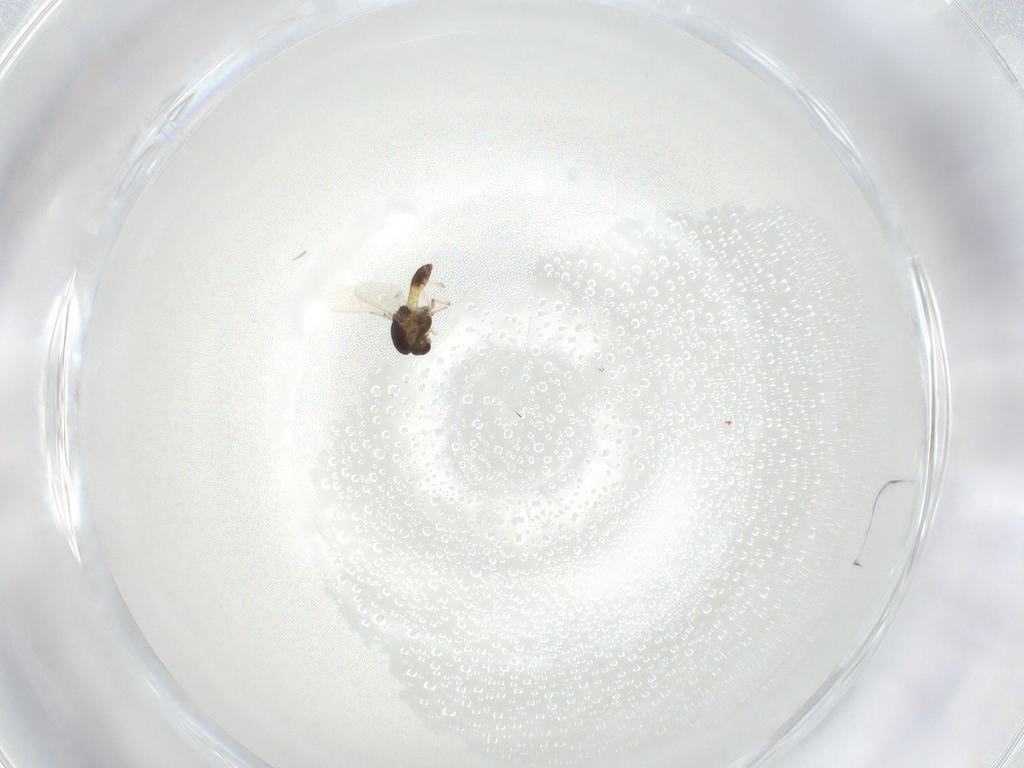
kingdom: Animalia
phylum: Arthropoda
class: Insecta
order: Diptera
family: Chironomidae
